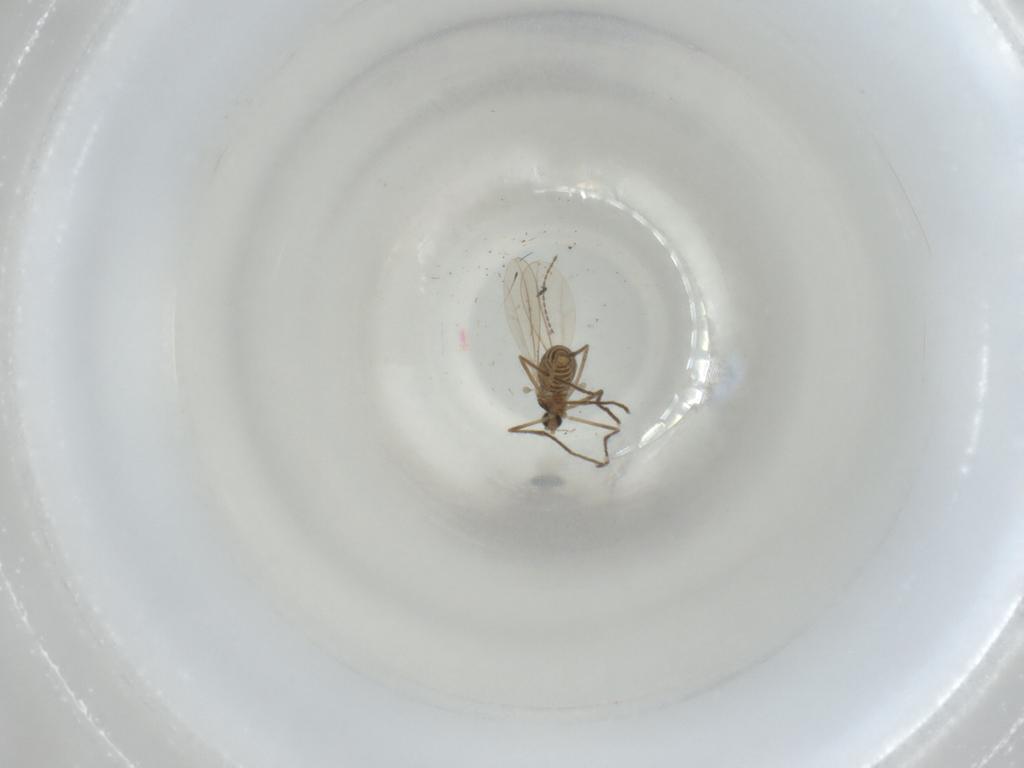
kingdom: Animalia
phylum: Arthropoda
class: Insecta
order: Diptera
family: Cecidomyiidae
